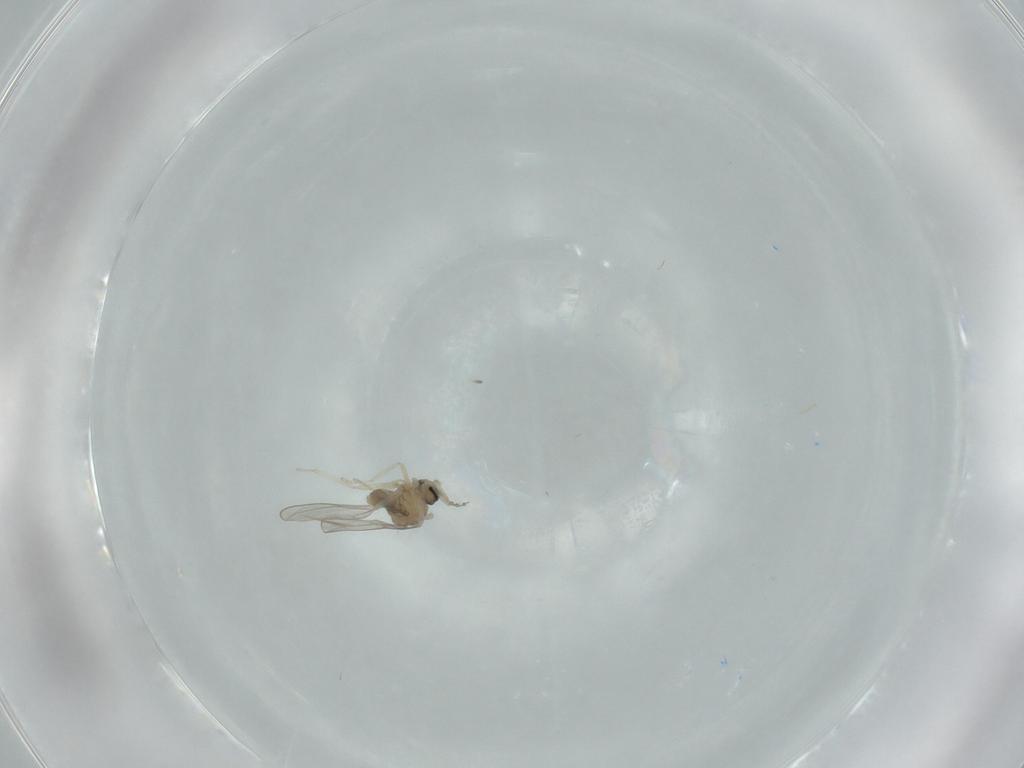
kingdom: Animalia
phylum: Arthropoda
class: Insecta
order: Diptera
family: Cecidomyiidae
